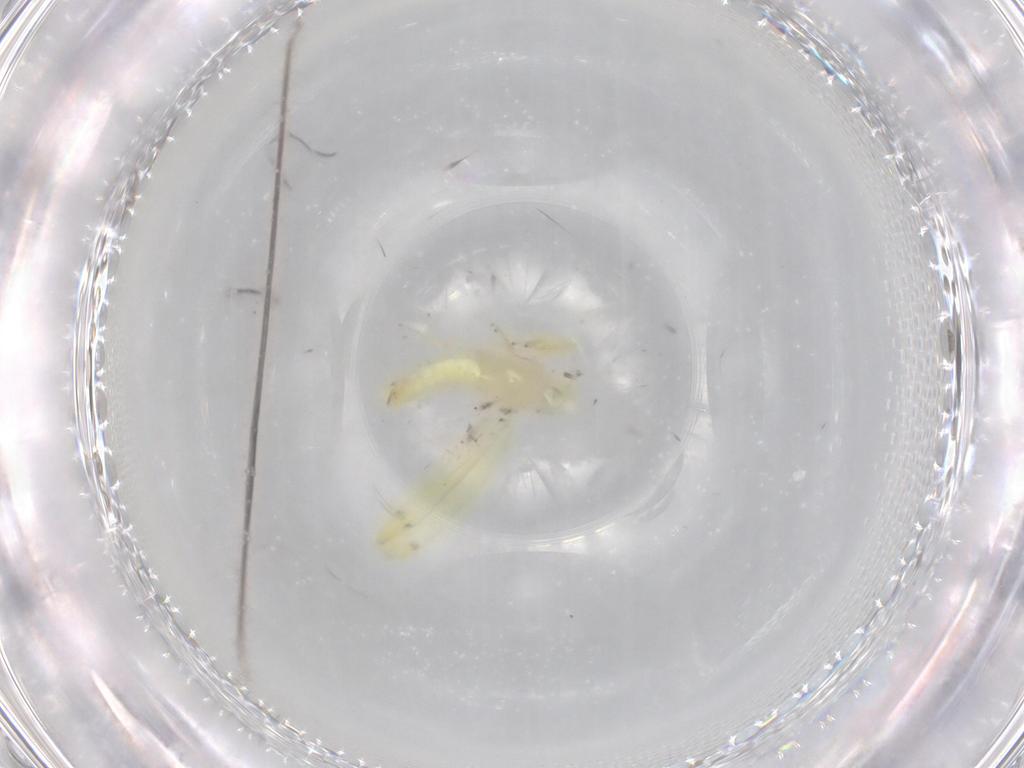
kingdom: Animalia
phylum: Arthropoda
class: Insecta
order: Hemiptera
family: Cicadellidae
